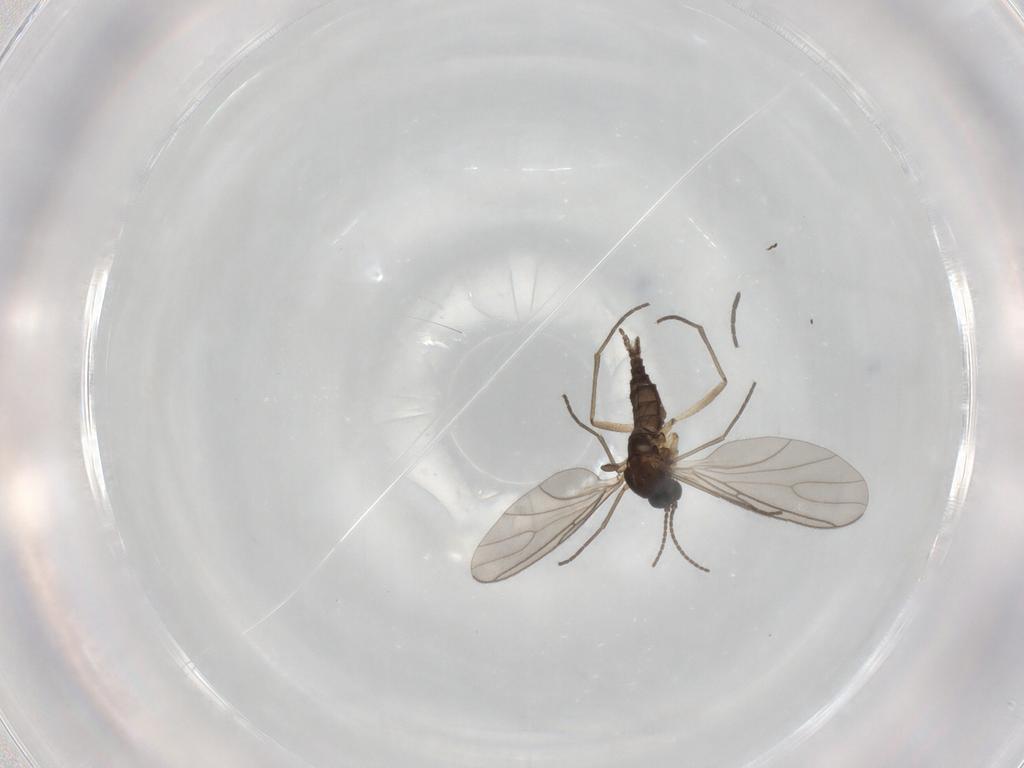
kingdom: Animalia
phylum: Arthropoda
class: Insecta
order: Diptera
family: Sciaridae
